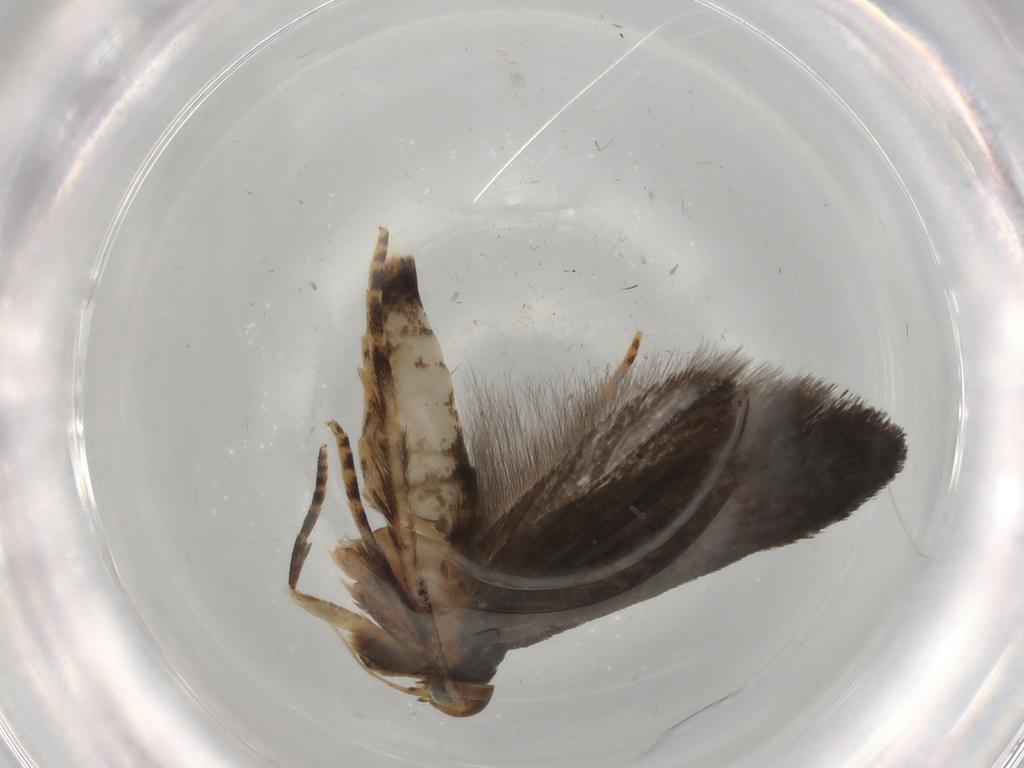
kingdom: Animalia
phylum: Arthropoda
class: Insecta
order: Lepidoptera
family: Gelechiidae
